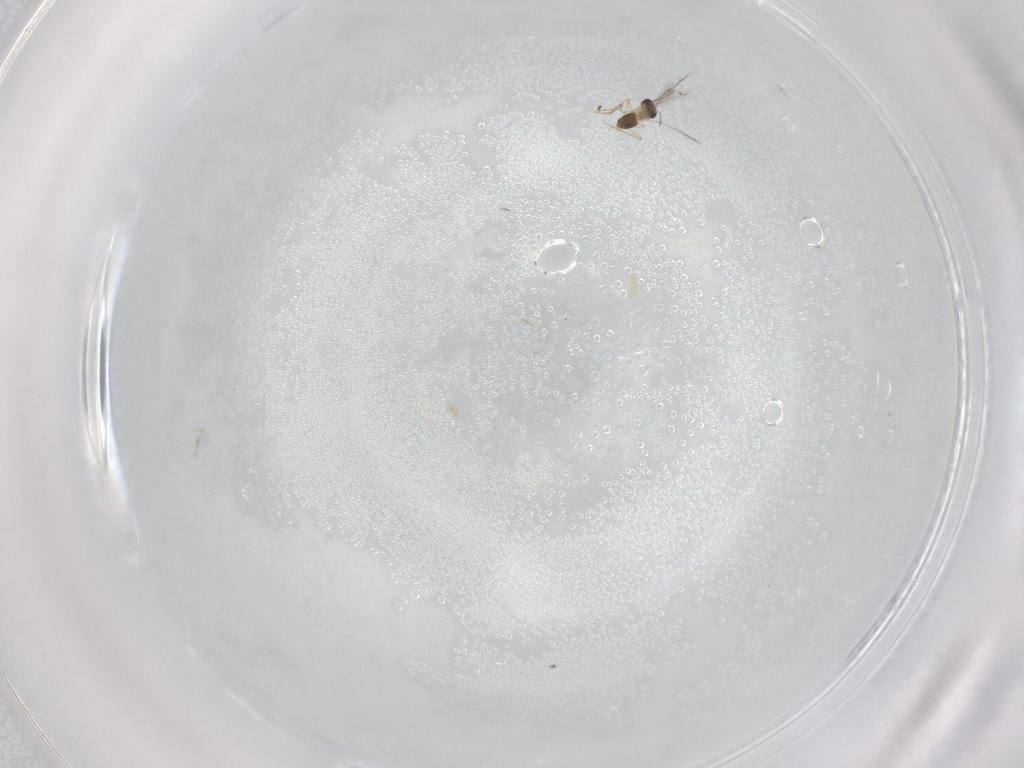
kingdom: Animalia
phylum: Arthropoda
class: Insecta
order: Hymenoptera
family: Mymaridae
